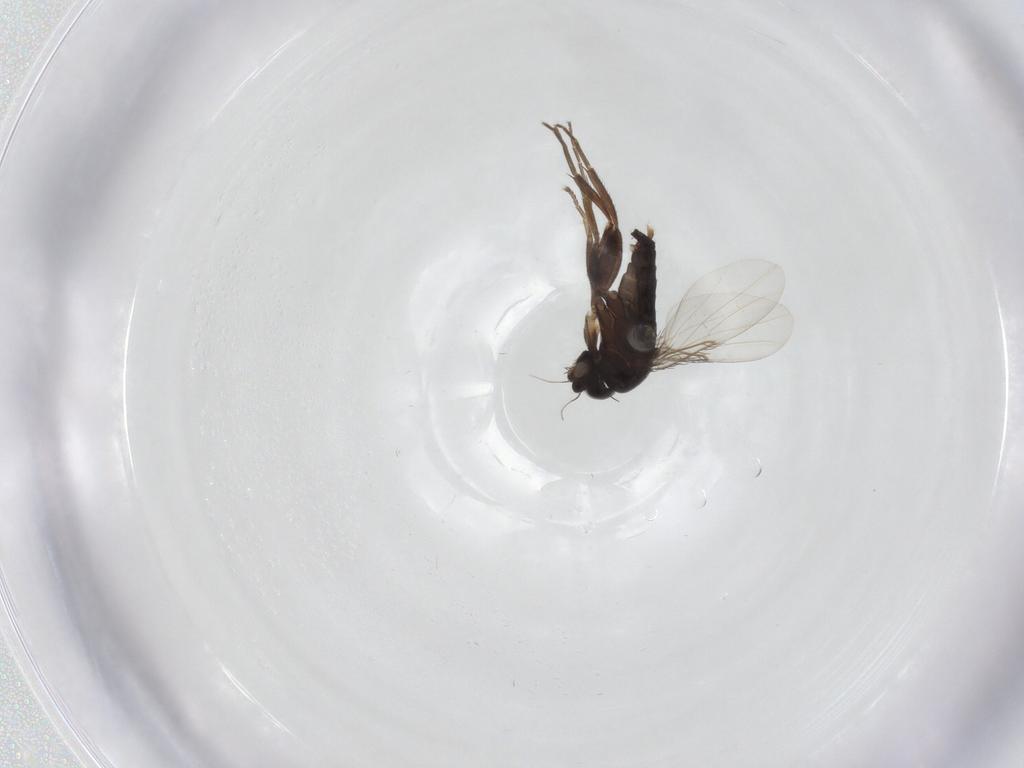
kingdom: Animalia
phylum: Arthropoda
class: Insecta
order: Diptera
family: Phoridae
